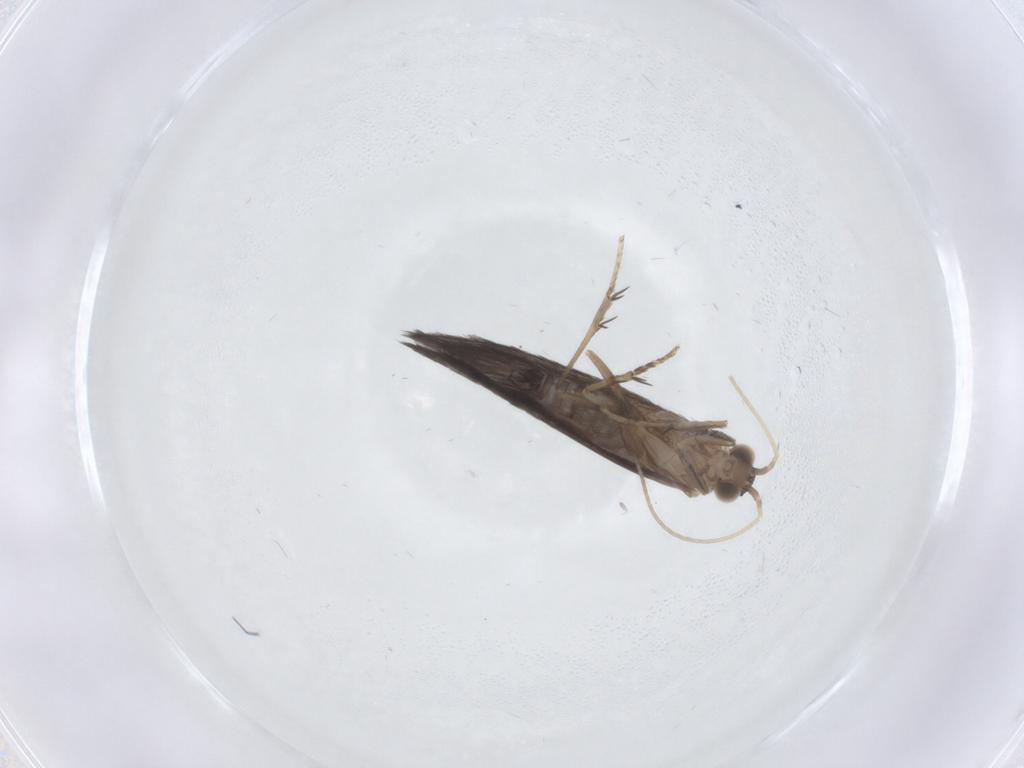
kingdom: Animalia
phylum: Arthropoda
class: Insecta
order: Trichoptera
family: Glossosomatidae
